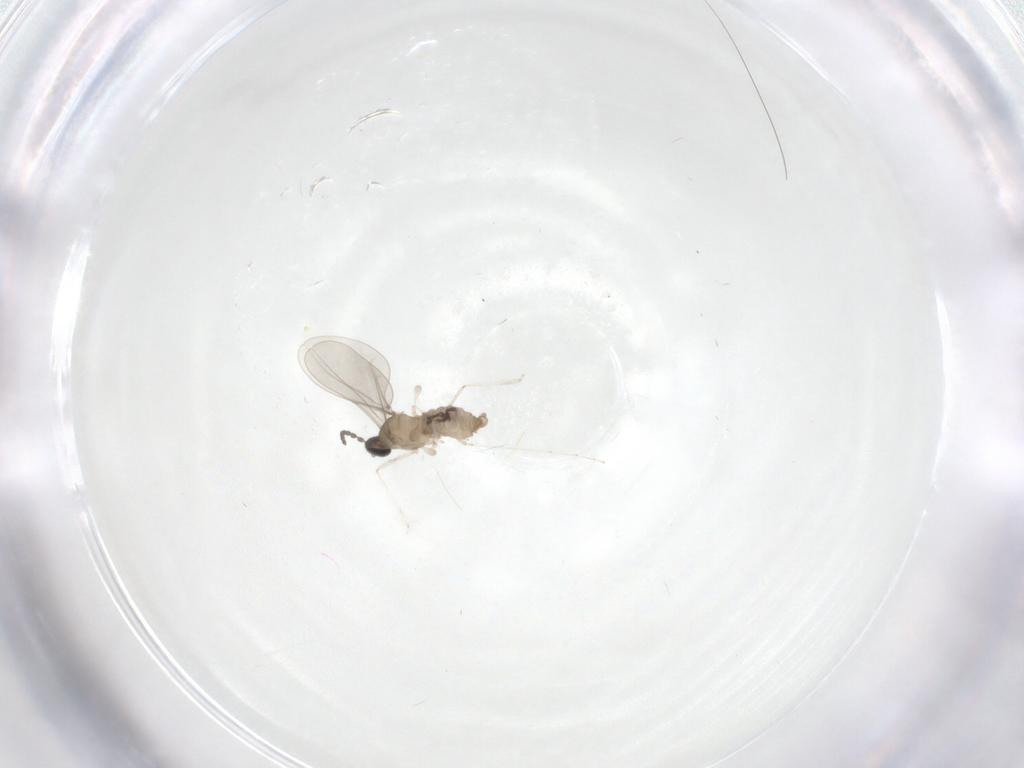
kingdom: Animalia
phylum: Arthropoda
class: Insecta
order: Diptera
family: Cecidomyiidae
